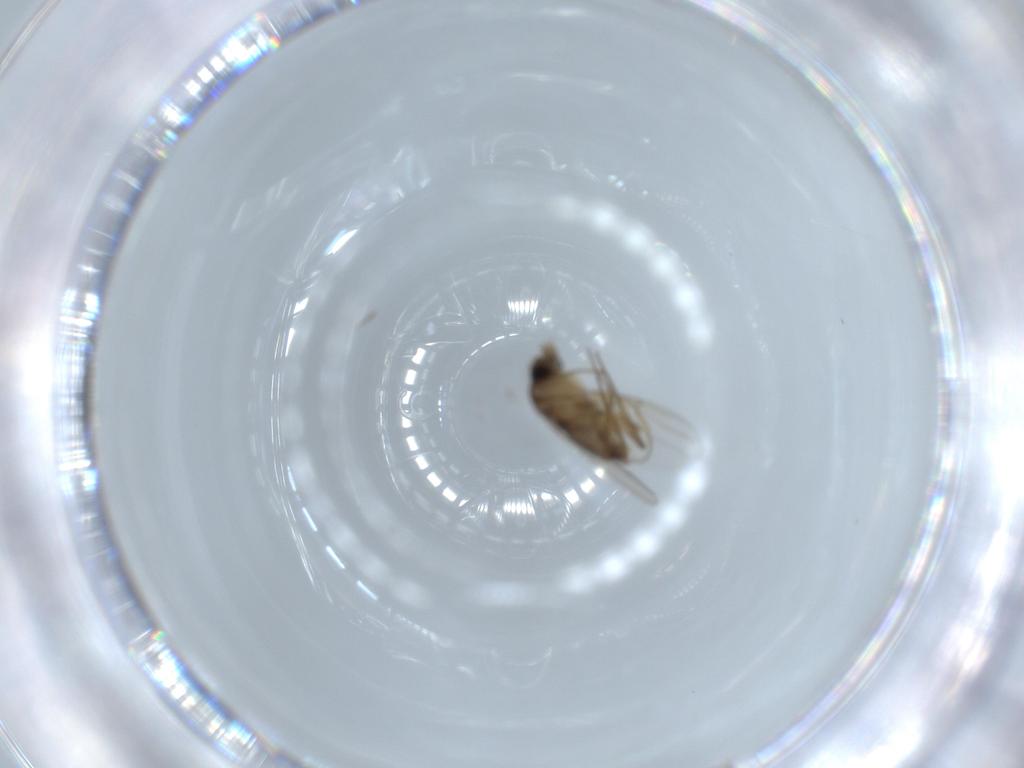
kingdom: Animalia
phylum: Arthropoda
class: Insecta
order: Diptera
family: Phoridae
